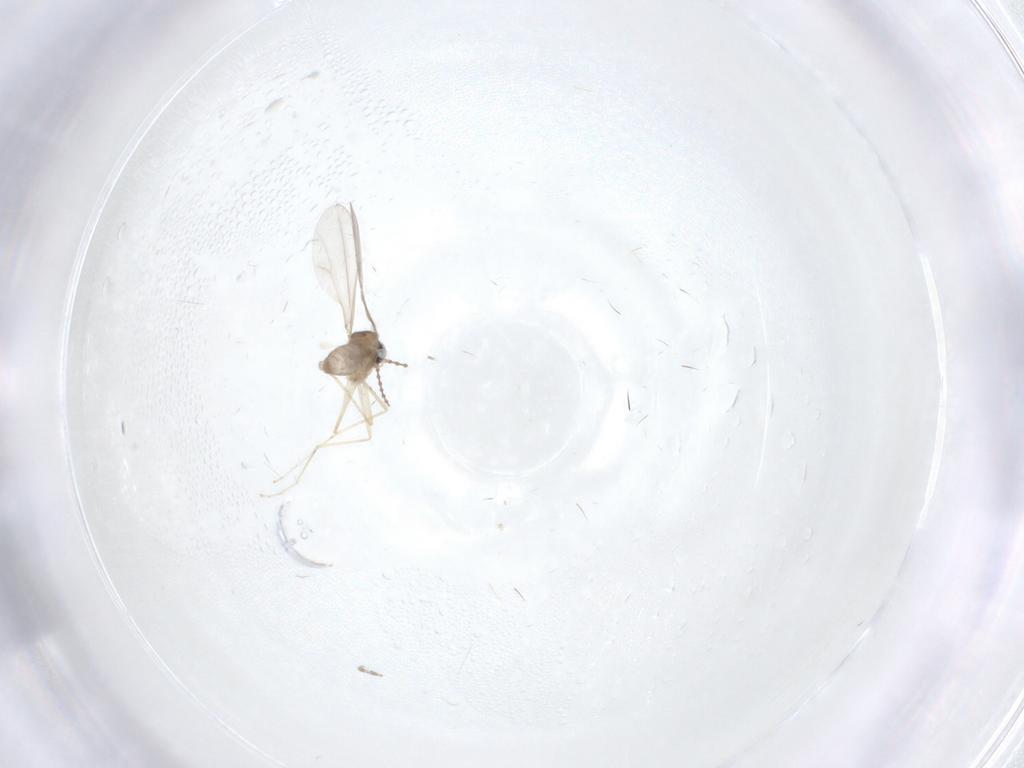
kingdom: Animalia
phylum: Arthropoda
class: Insecta
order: Diptera
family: Cecidomyiidae
